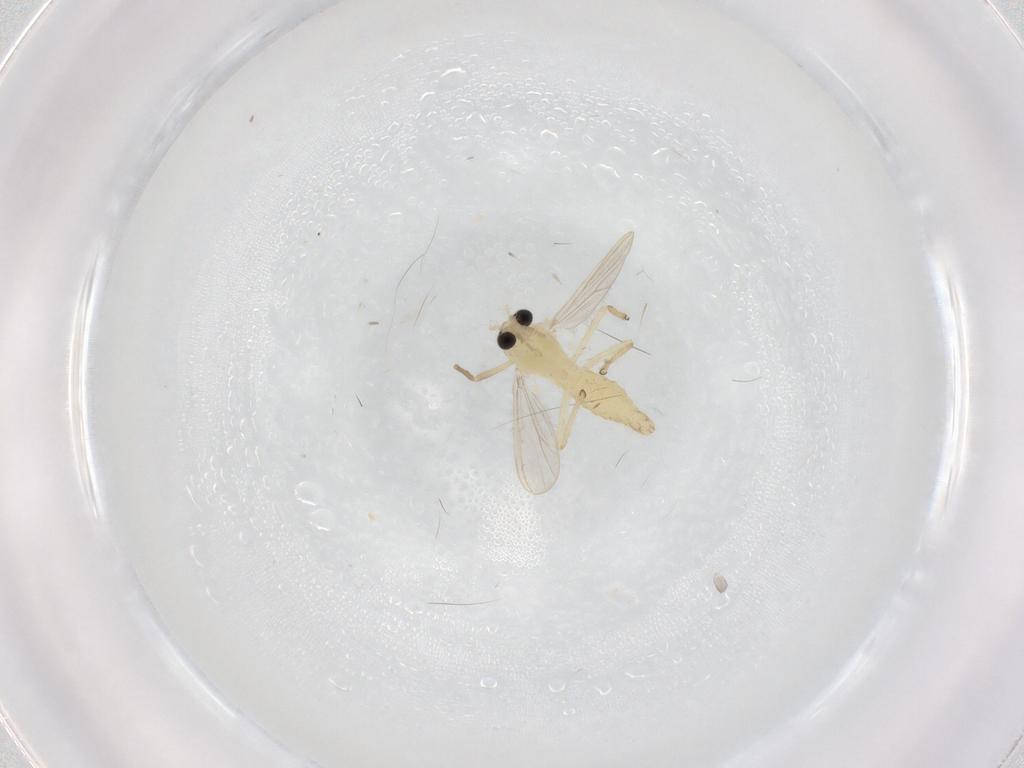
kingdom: Animalia
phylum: Arthropoda
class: Insecta
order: Diptera
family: Chironomidae
